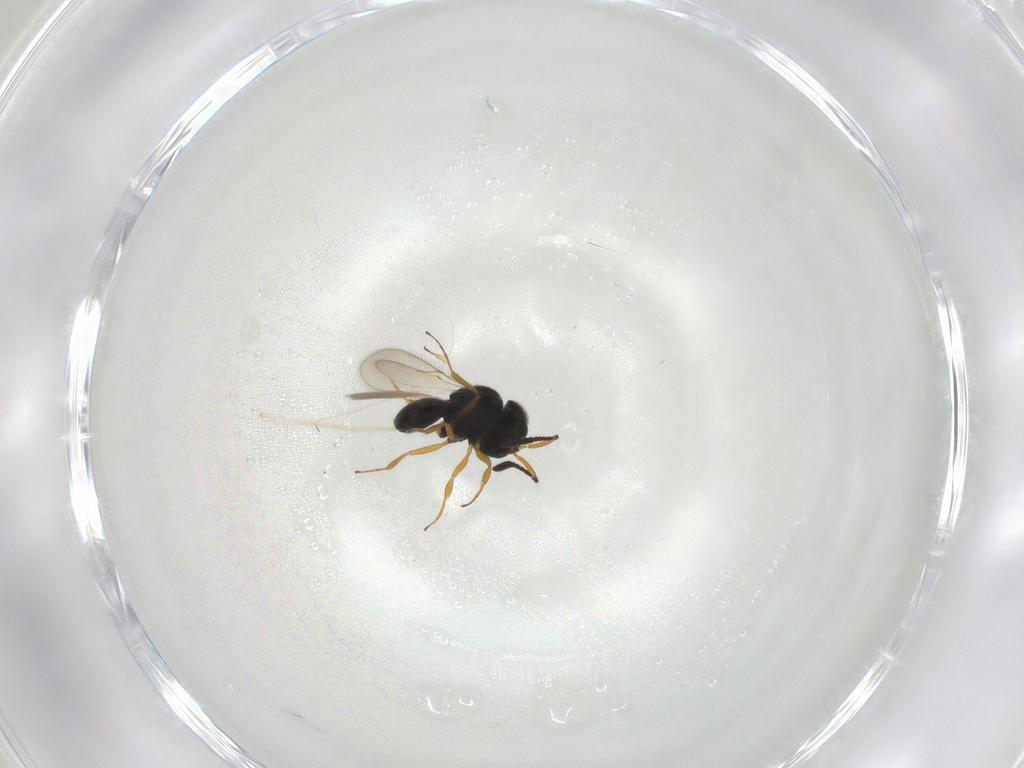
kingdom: Animalia
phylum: Arthropoda
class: Insecta
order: Hymenoptera
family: Scelionidae
